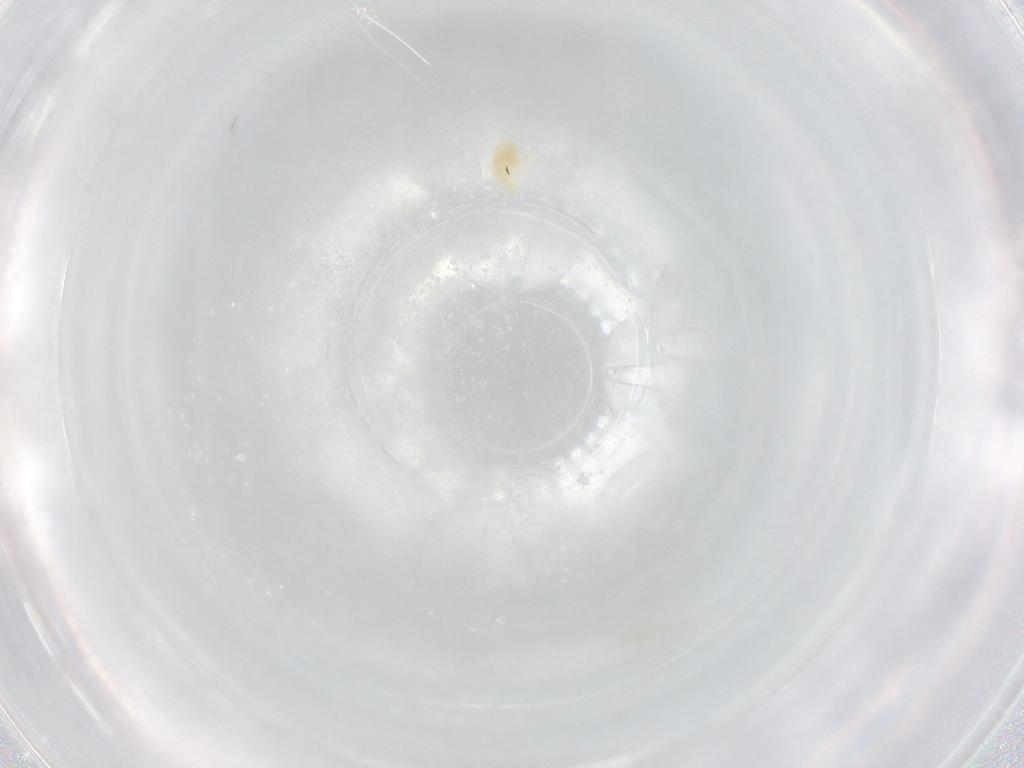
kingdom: Animalia
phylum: Arthropoda
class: Arachnida
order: Trombidiformes
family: Eupodidae
